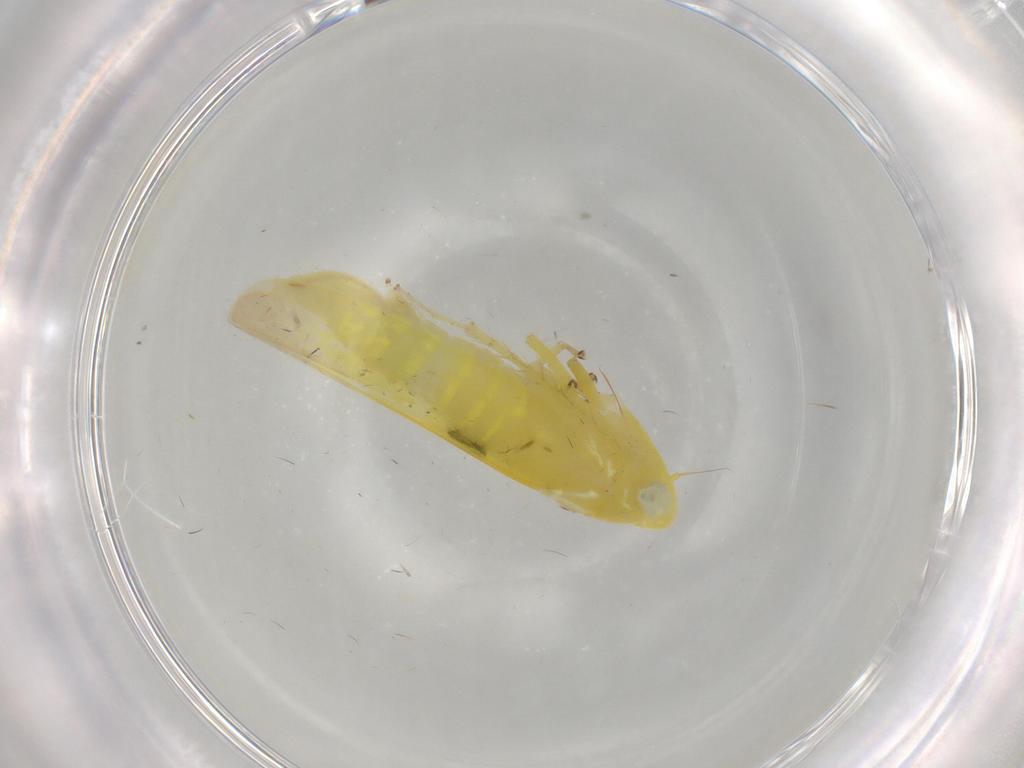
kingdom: Animalia
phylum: Arthropoda
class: Insecta
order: Hemiptera
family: Cicadellidae
